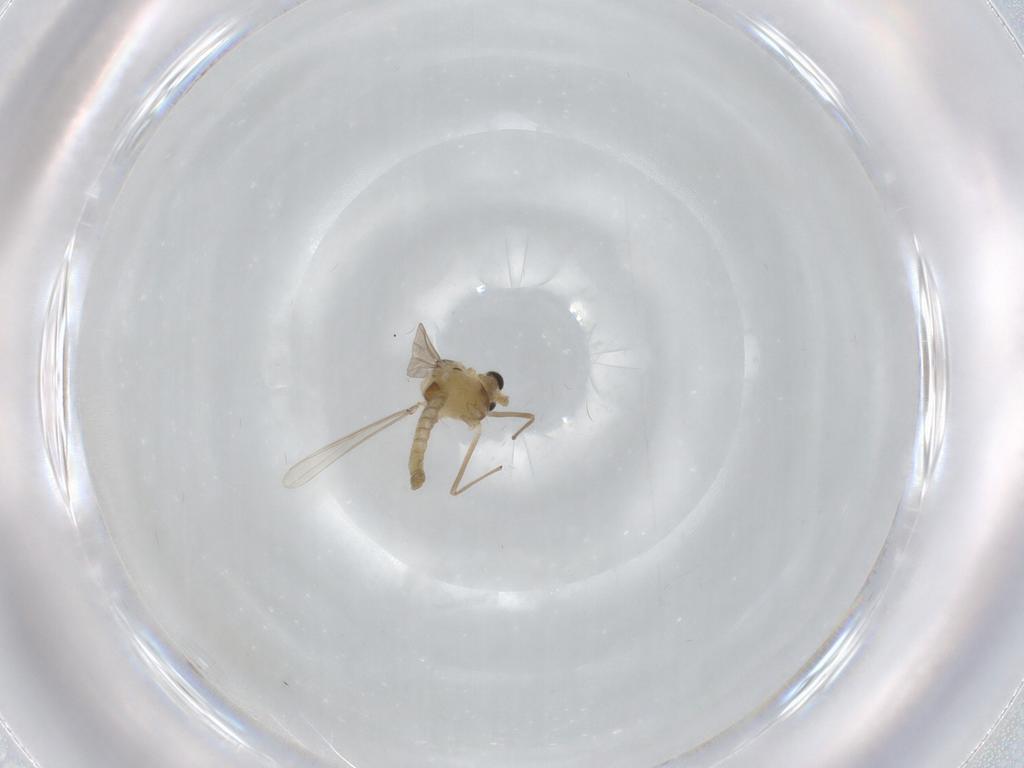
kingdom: Animalia
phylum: Arthropoda
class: Insecta
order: Diptera
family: Chironomidae
